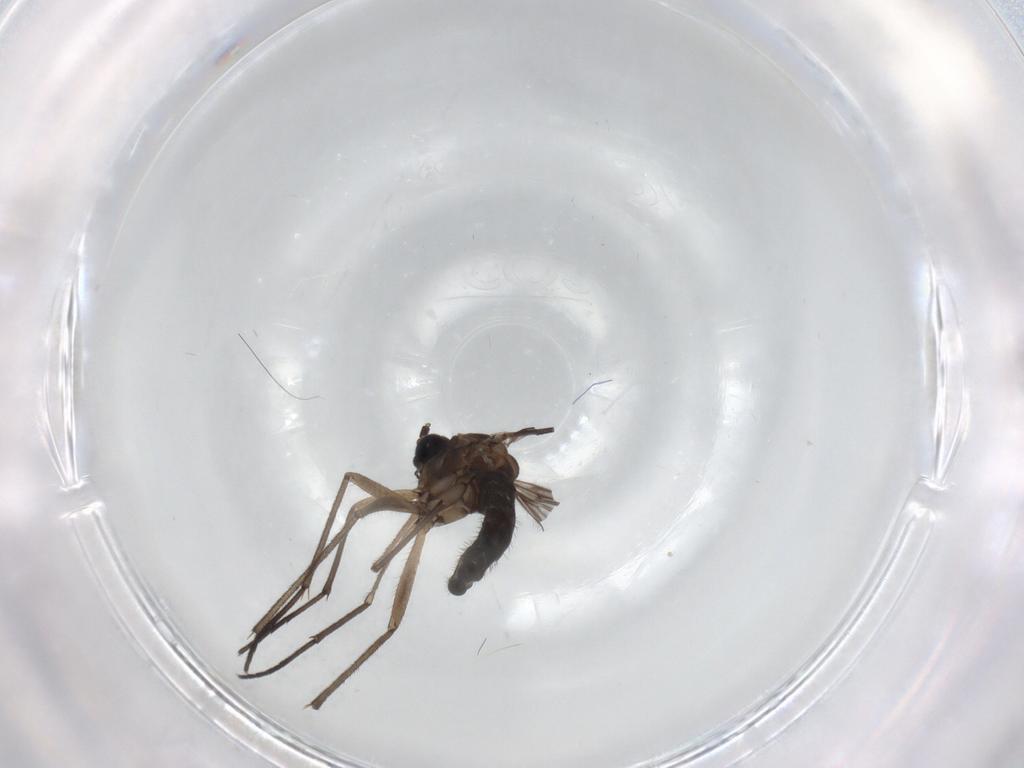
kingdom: Animalia
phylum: Arthropoda
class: Insecta
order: Diptera
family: Sciaridae
